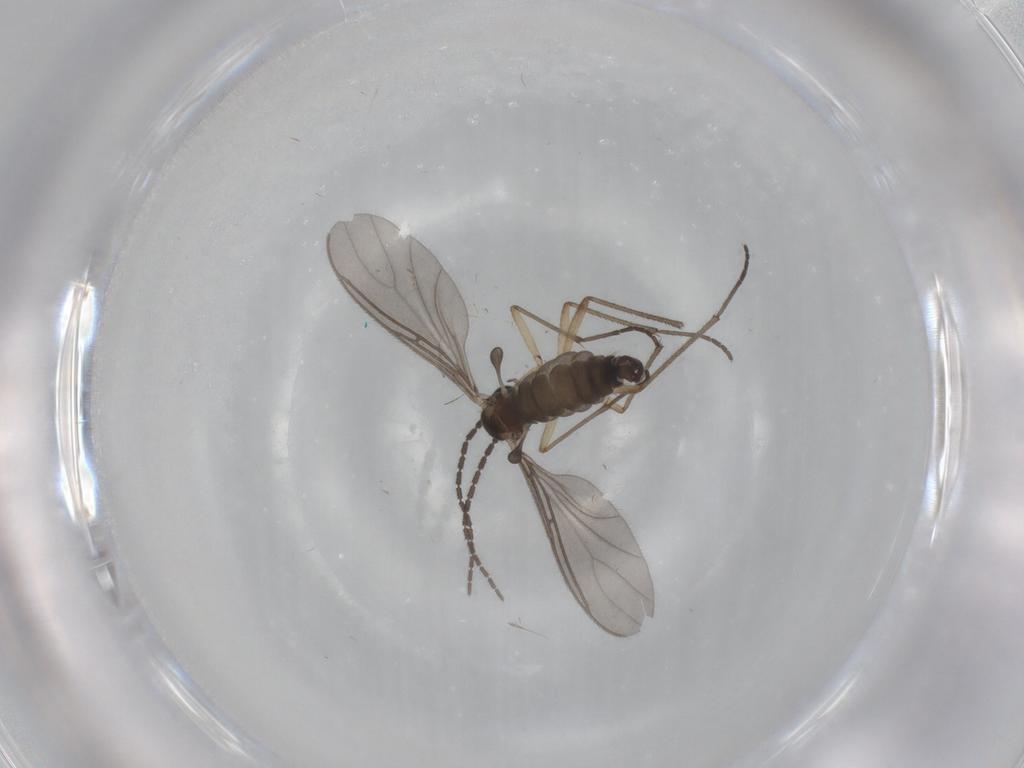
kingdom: Animalia
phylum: Arthropoda
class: Insecta
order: Diptera
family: Sciaridae
